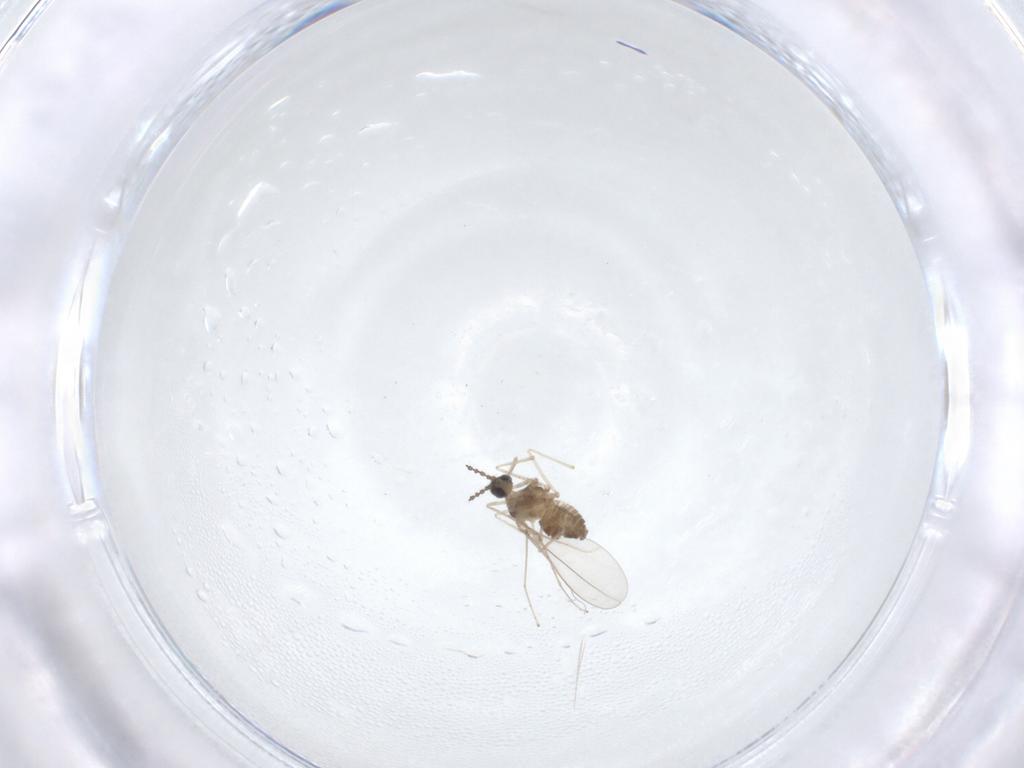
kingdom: Animalia
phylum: Arthropoda
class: Insecta
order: Diptera
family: Cecidomyiidae
